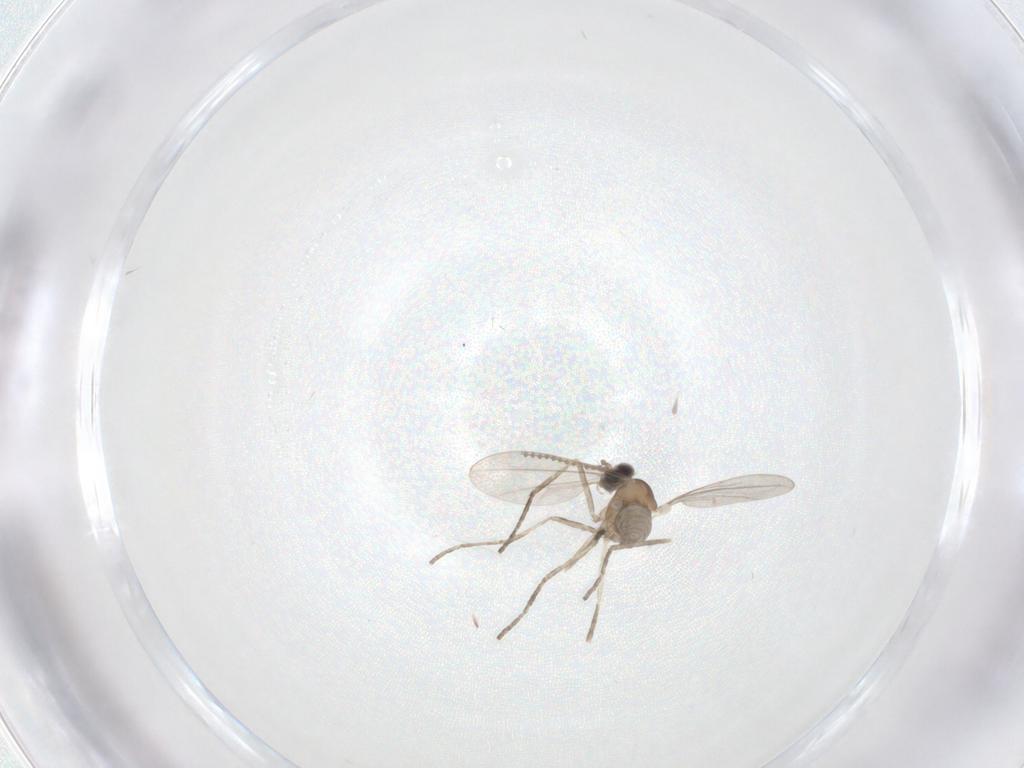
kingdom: Animalia
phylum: Arthropoda
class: Insecta
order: Diptera
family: Cecidomyiidae
